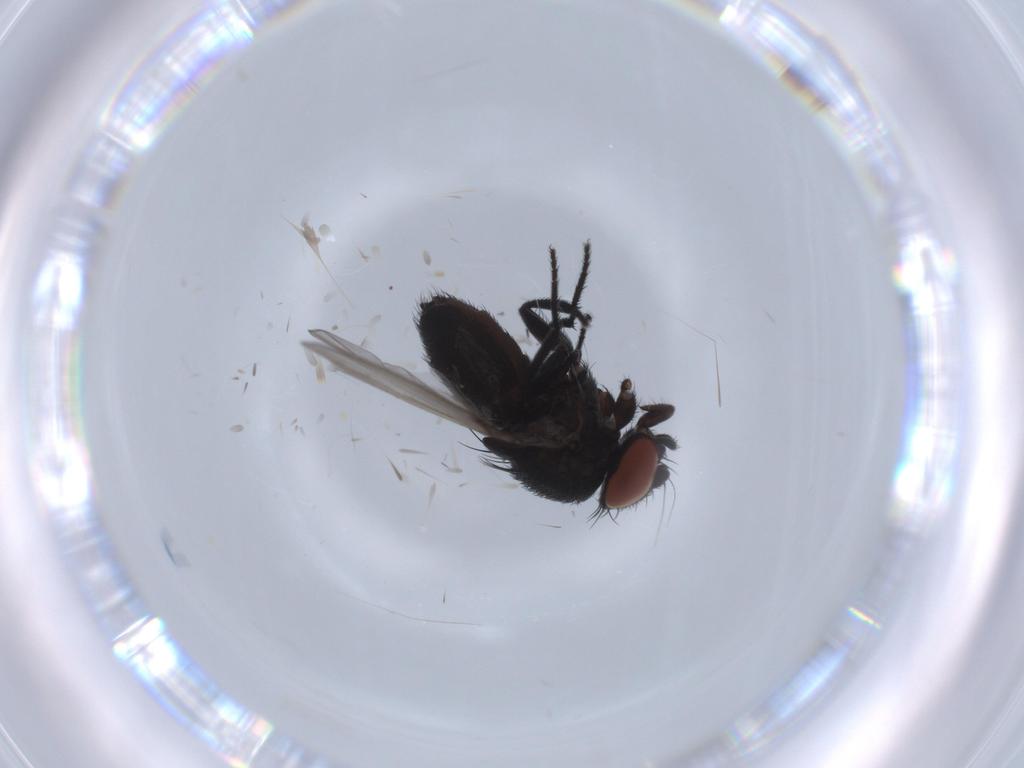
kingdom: Animalia
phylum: Arthropoda
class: Insecta
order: Diptera
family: Milichiidae
